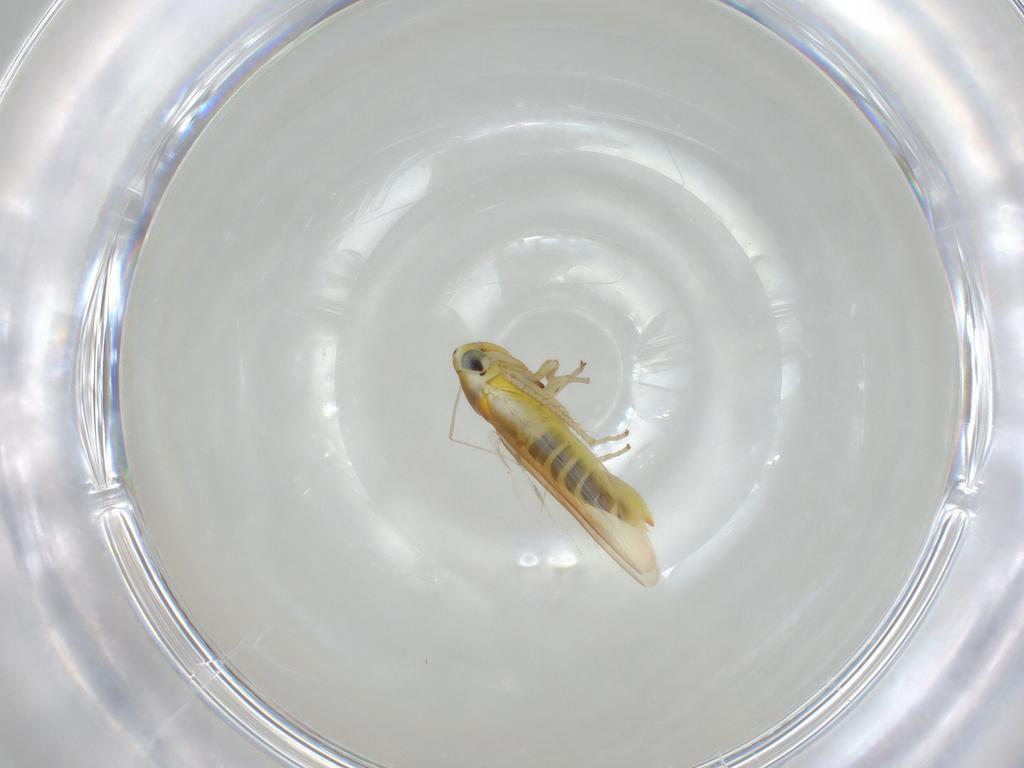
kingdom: Animalia
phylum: Arthropoda
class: Insecta
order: Hemiptera
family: Cicadellidae
